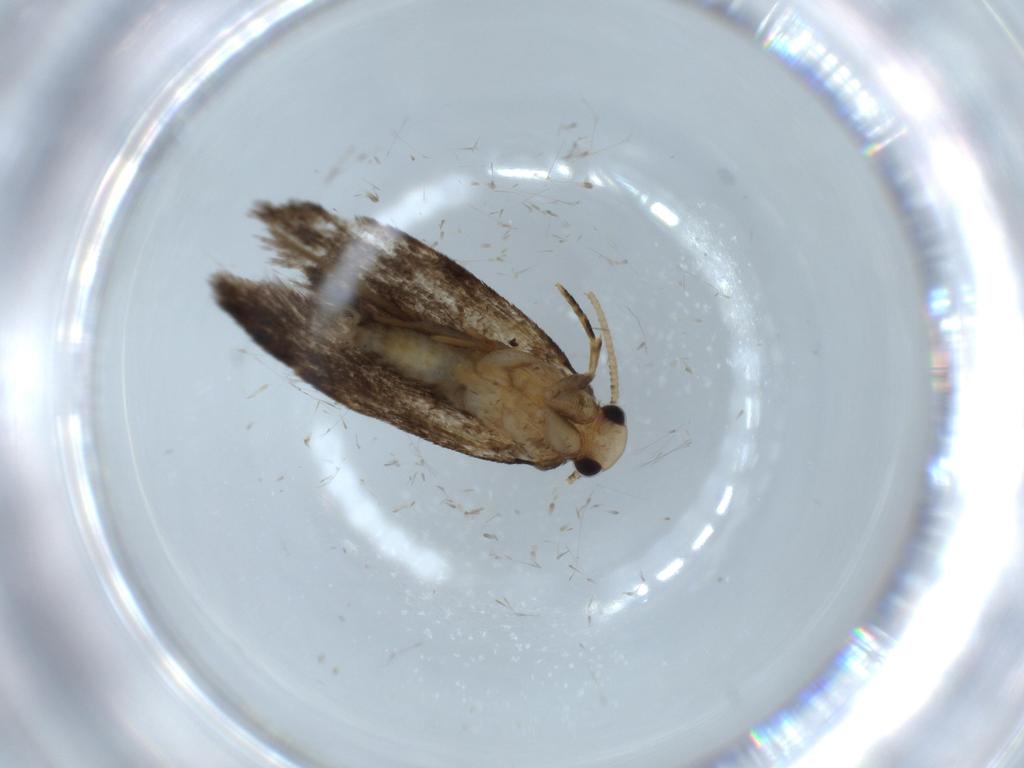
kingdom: Animalia
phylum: Arthropoda
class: Insecta
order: Lepidoptera
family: Tineidae
